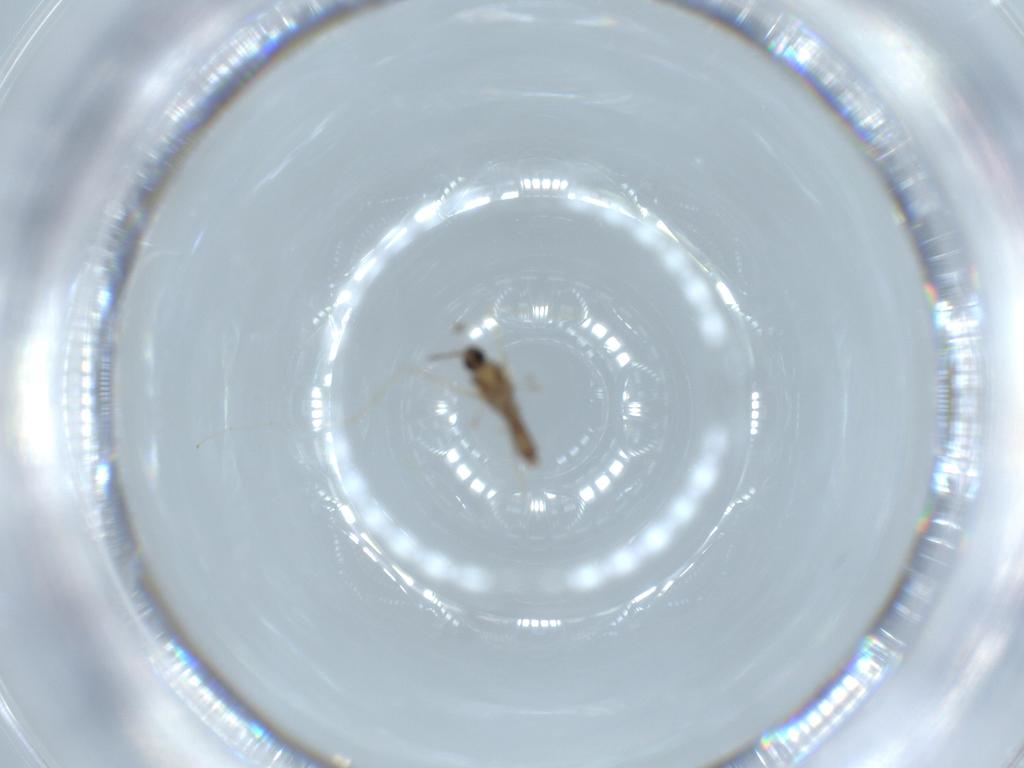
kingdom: Animalia
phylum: Arthropoda
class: Insecta
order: Diptera
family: Cecidomyiidae
